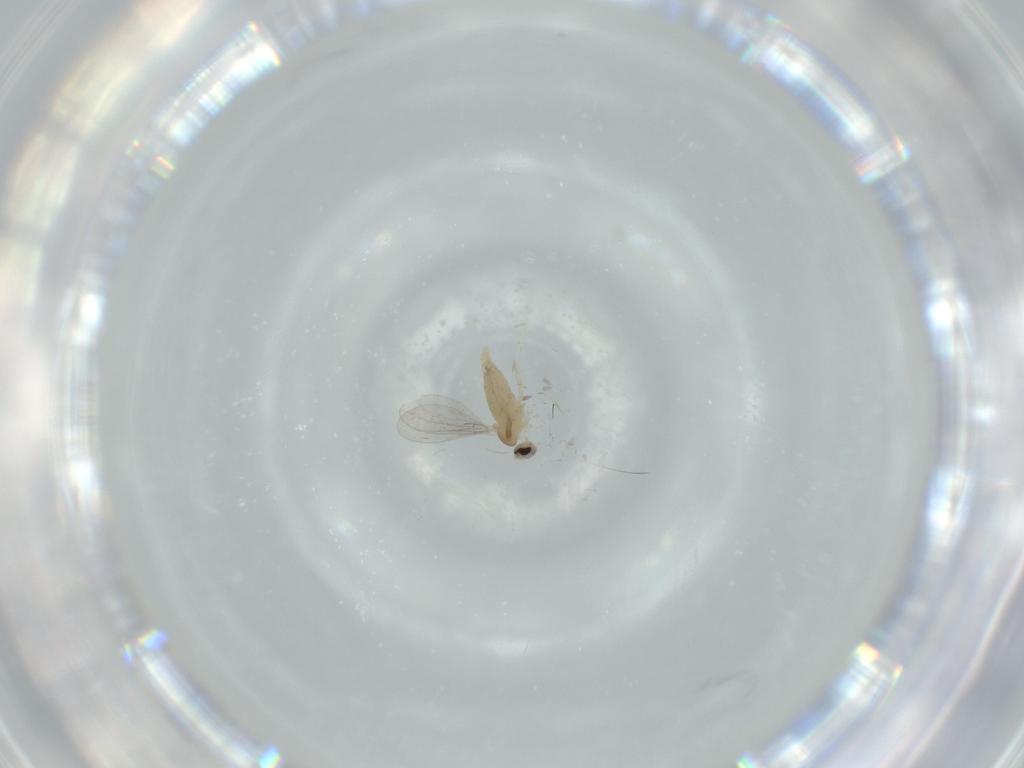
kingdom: Animalia
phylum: Arthropoda
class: Insecta
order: Diptera
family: Cecidomyiidae
